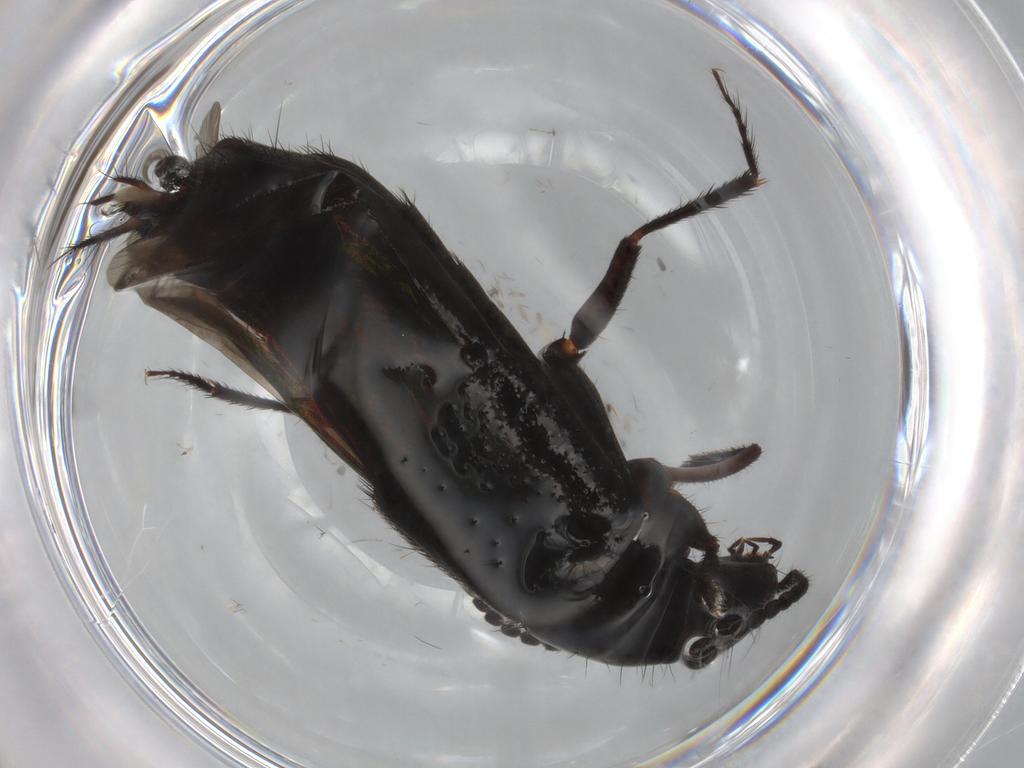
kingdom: Animalia
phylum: Arthropoda
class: Insecta
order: Coleoptera
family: Staphylinidae
